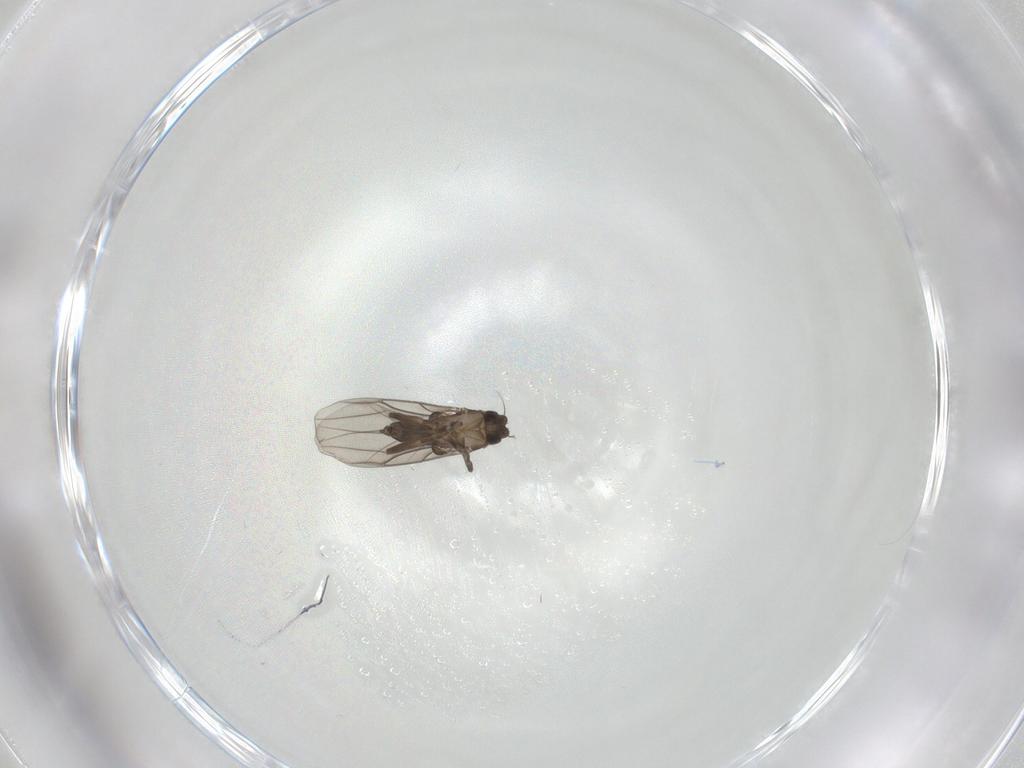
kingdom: Animalia
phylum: Arthropoda
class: Insecta
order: Diptera
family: Phoridae
